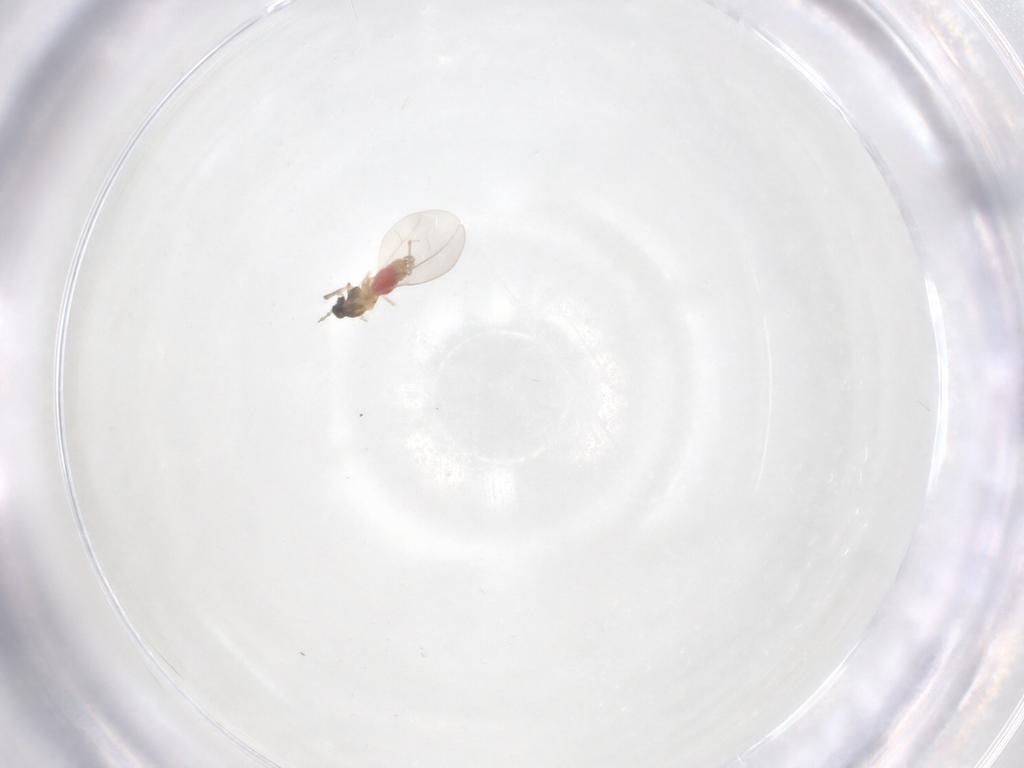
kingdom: Animalia
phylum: Arthropoda
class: Insecta
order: Diptera
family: Cecidomyiidae
